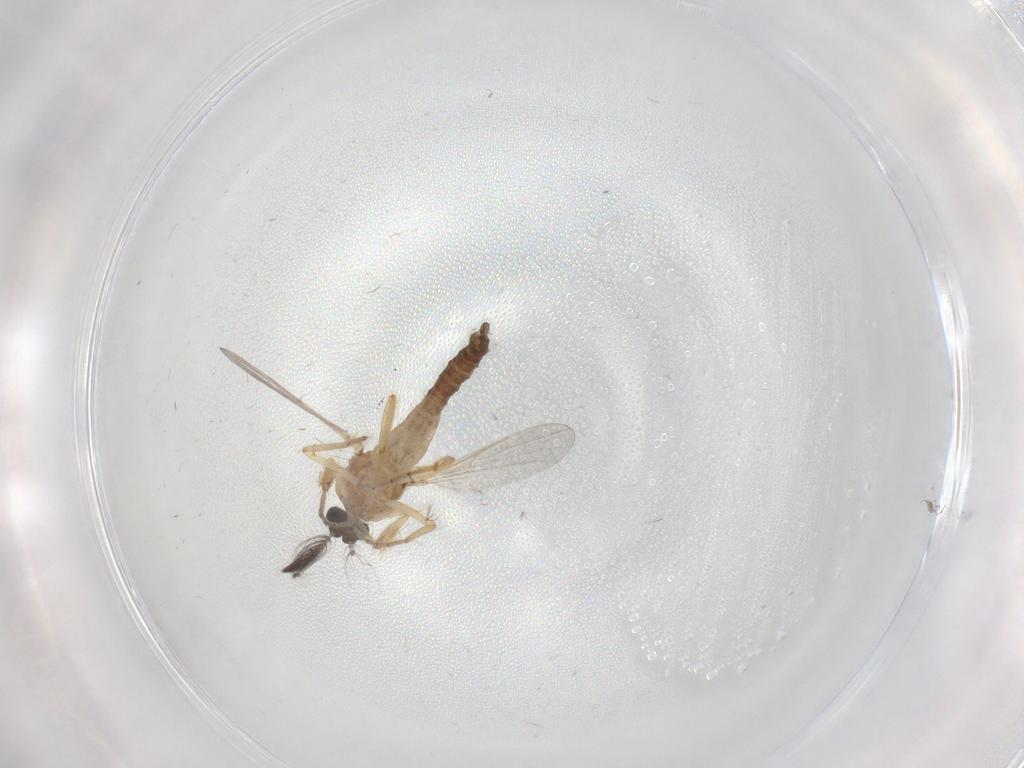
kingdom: Animalia
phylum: Arthropoda
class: Insecta
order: Diptera
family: Ceratopogonidae
